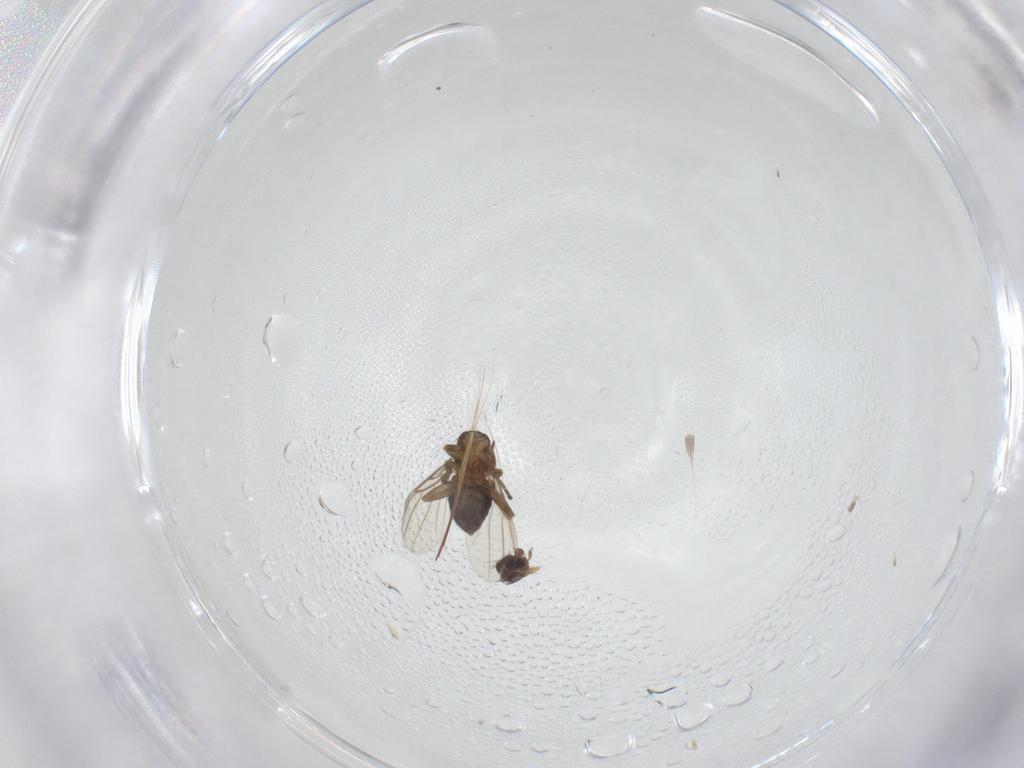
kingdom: Animalia
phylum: Arthropoda
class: Insecta
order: Diptera
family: Phoridae
